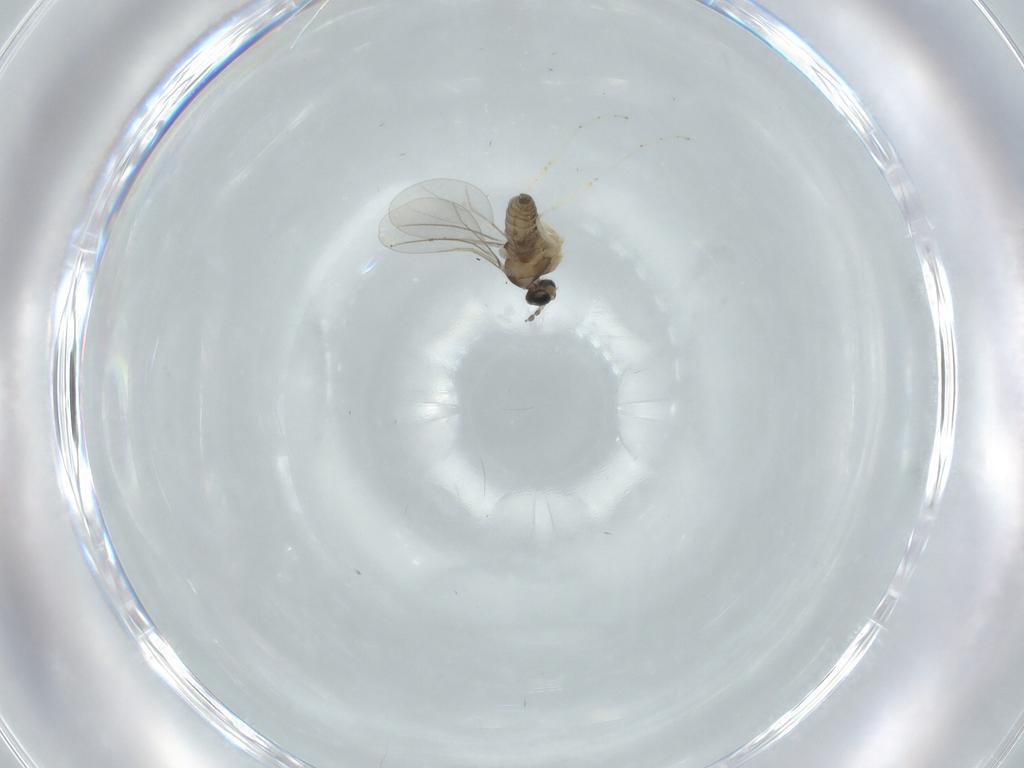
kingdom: Animalia
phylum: Arthropoda
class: Insecta
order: Diptera
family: Cecidomyiidae
